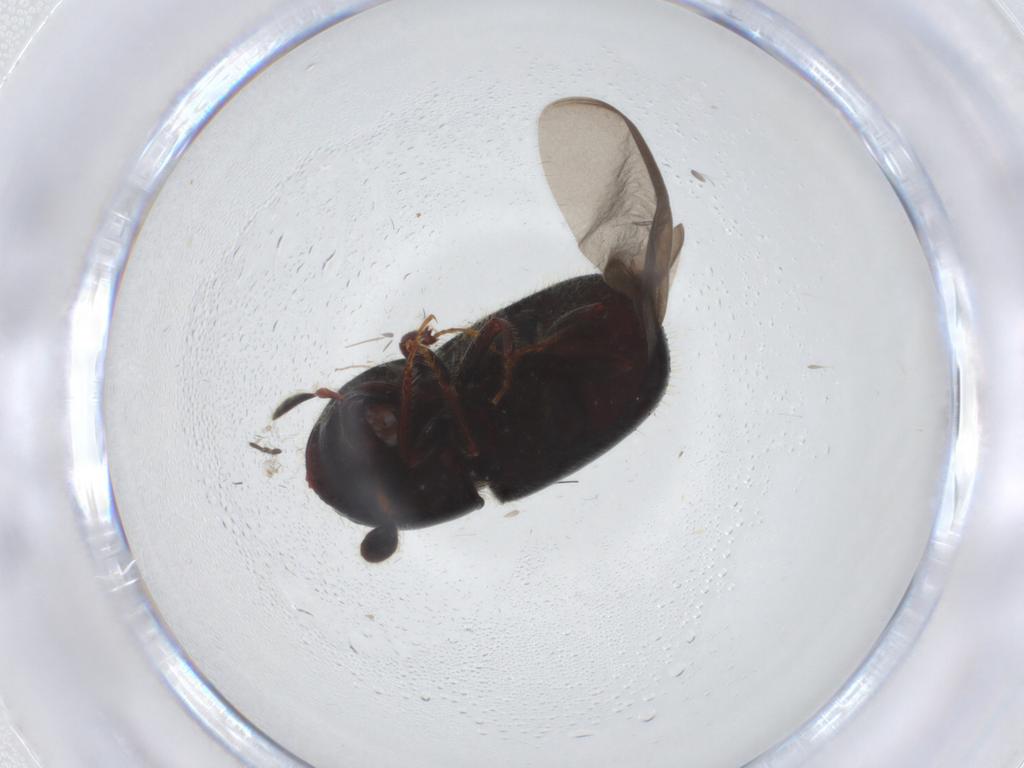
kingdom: Animalia
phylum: Arthropoda
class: Insecta
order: Coleoptera
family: Curculionidae
